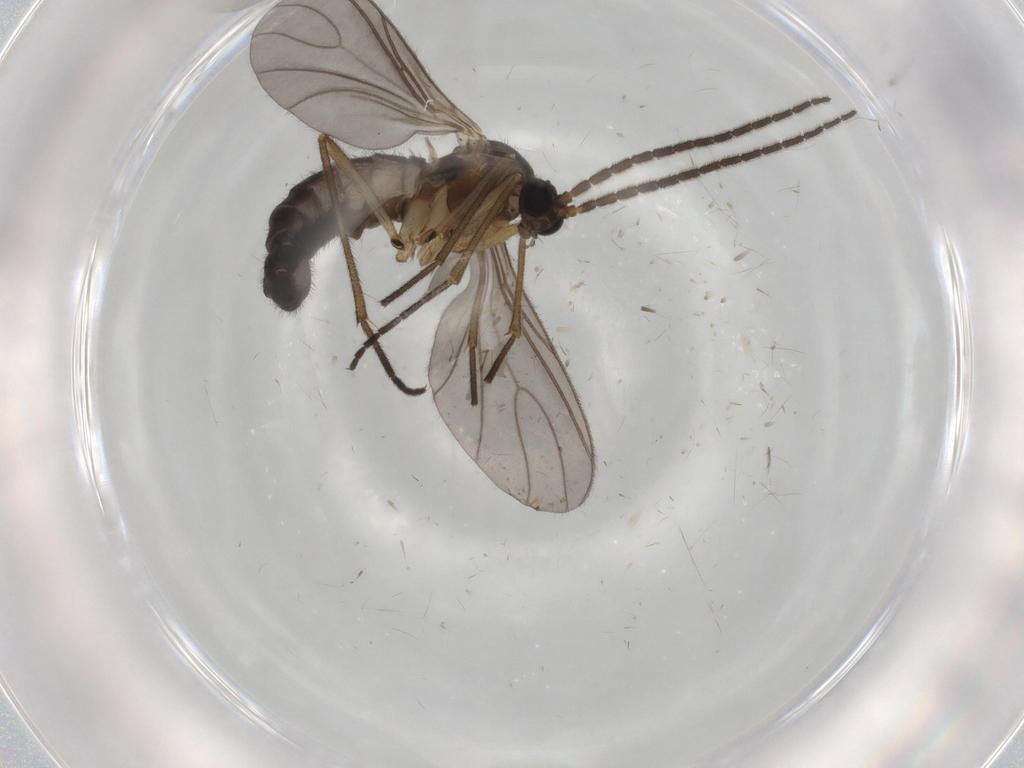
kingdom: Animalia
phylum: Arthropoda
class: Insecta
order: Diptera
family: Sciaridae
